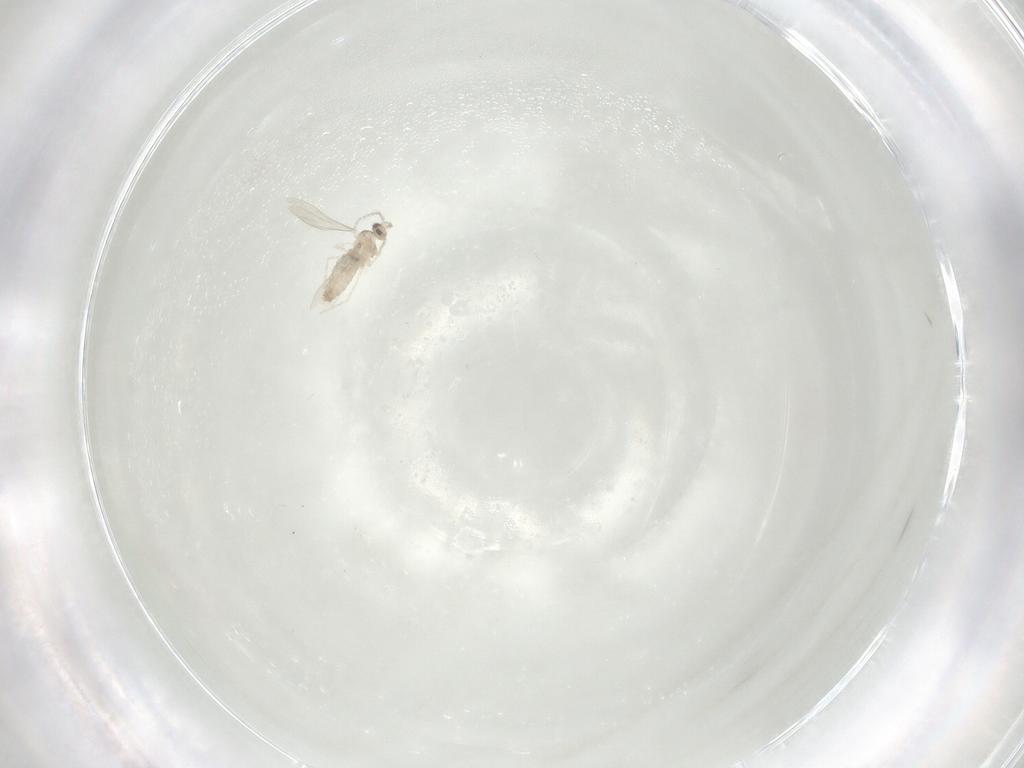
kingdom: Animalia
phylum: Arthropoda
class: Insecta
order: Diptera
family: Cecidomyiidae
